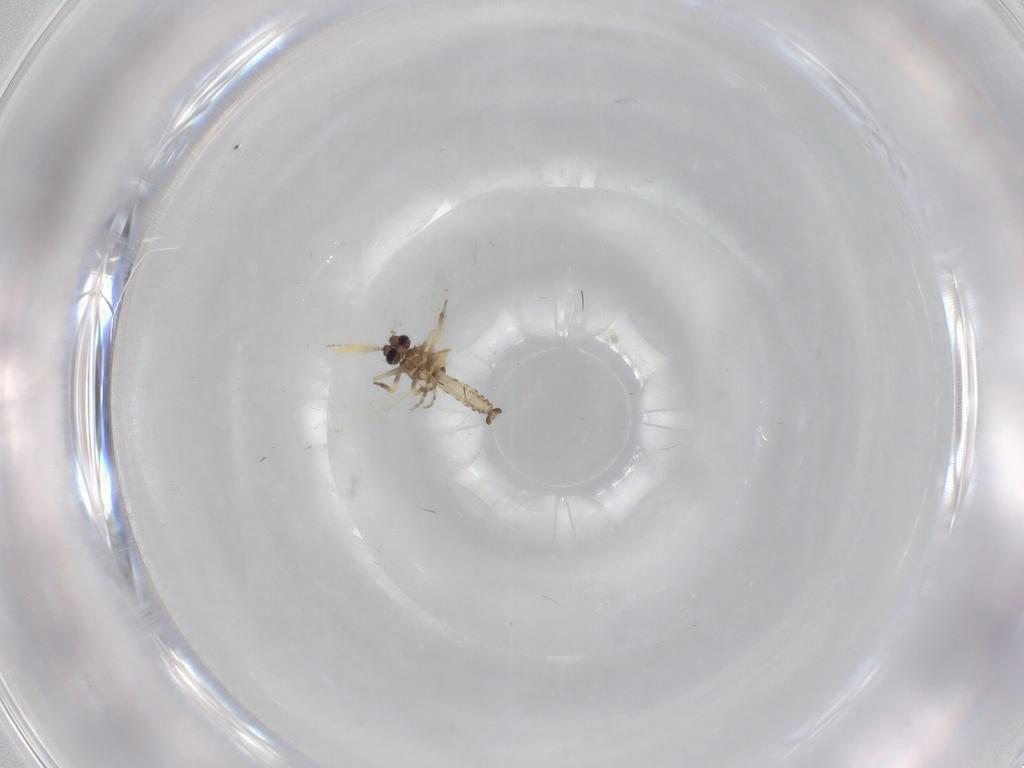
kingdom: Animalia
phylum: Arthropoda
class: Insecta
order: Diptera
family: Ceratopogonidae
